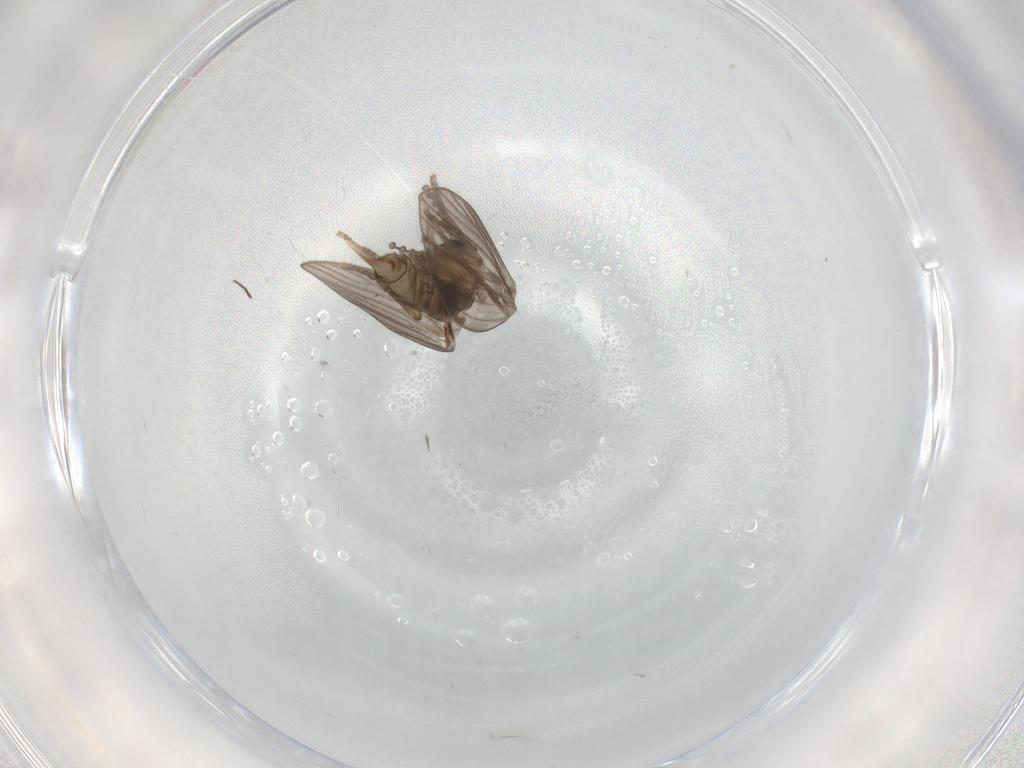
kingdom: Animalia
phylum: Arthropoda
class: Insecta
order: Diptera
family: Psychodidae
